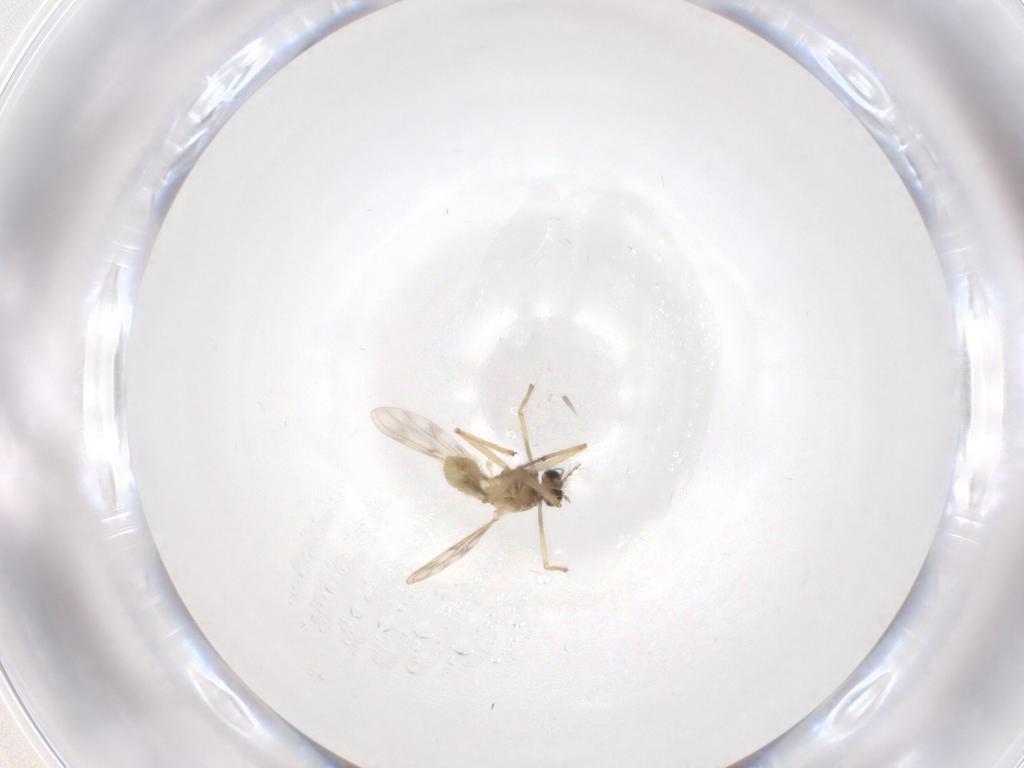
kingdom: Animalia
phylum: Arthropoda
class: Insecta
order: Diptera
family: Chironomidae
